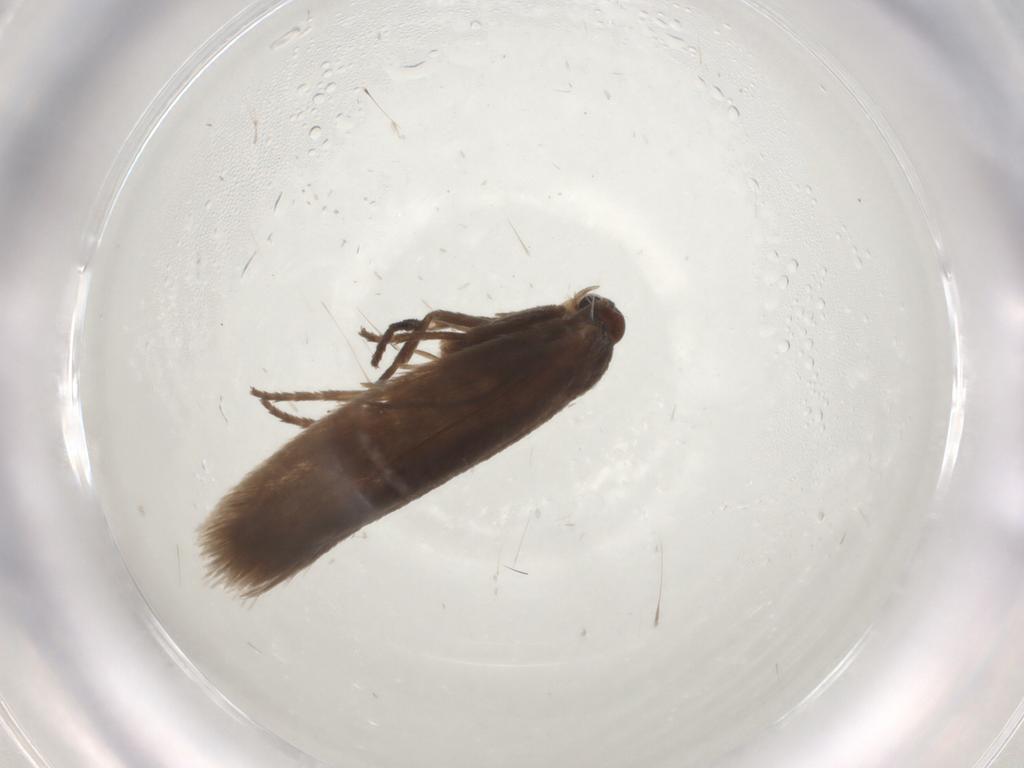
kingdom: Animalia
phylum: Arthropoda
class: Insecta
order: Lepidoptera
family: Limacodidae
